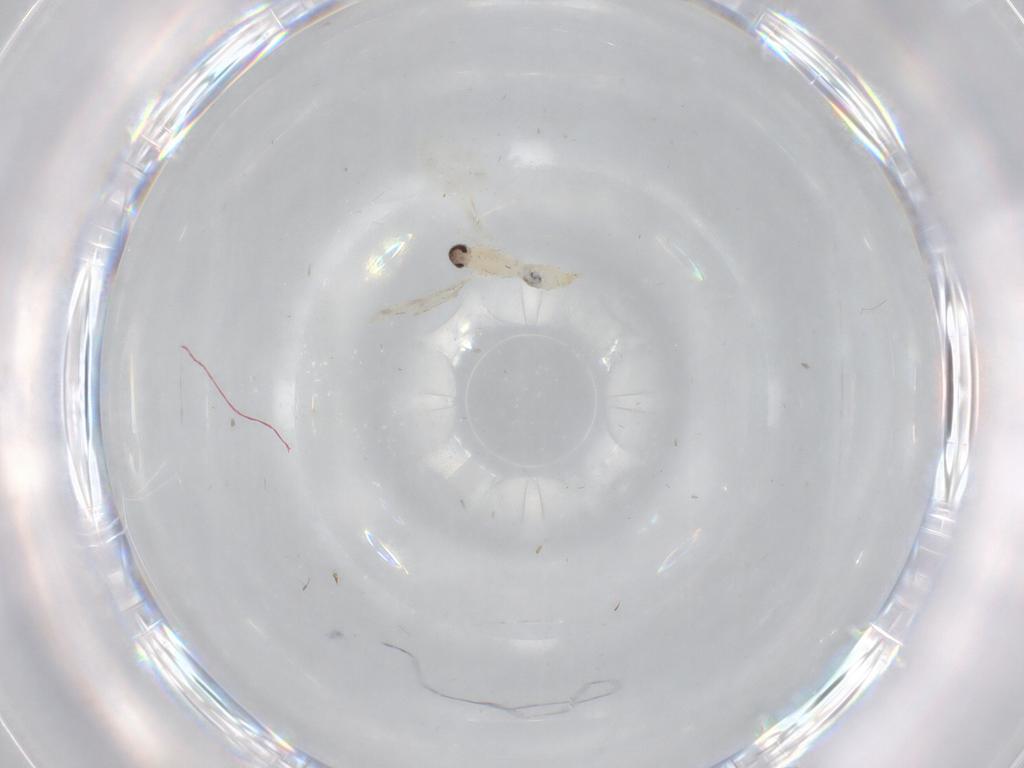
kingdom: Animalia
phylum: Arthropoda
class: Insecta
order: Diptera
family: Cecidomyiidae
